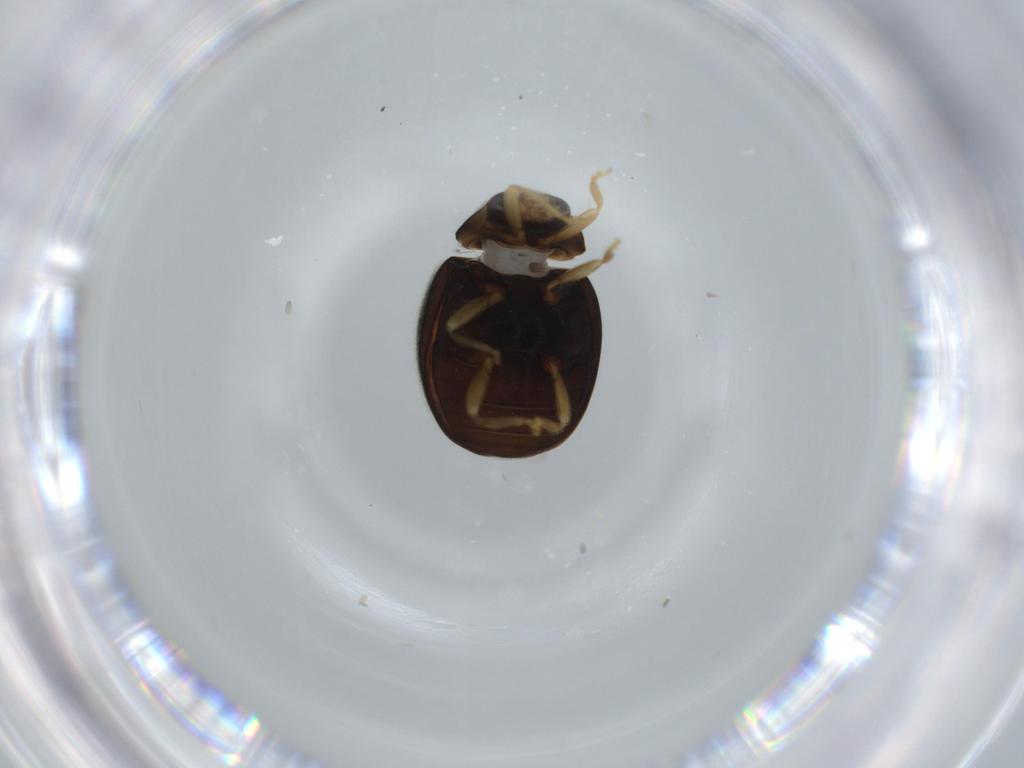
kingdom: Animalia
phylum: Arthropoda
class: Insecta
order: Coleoptera
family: Coccinellidae
